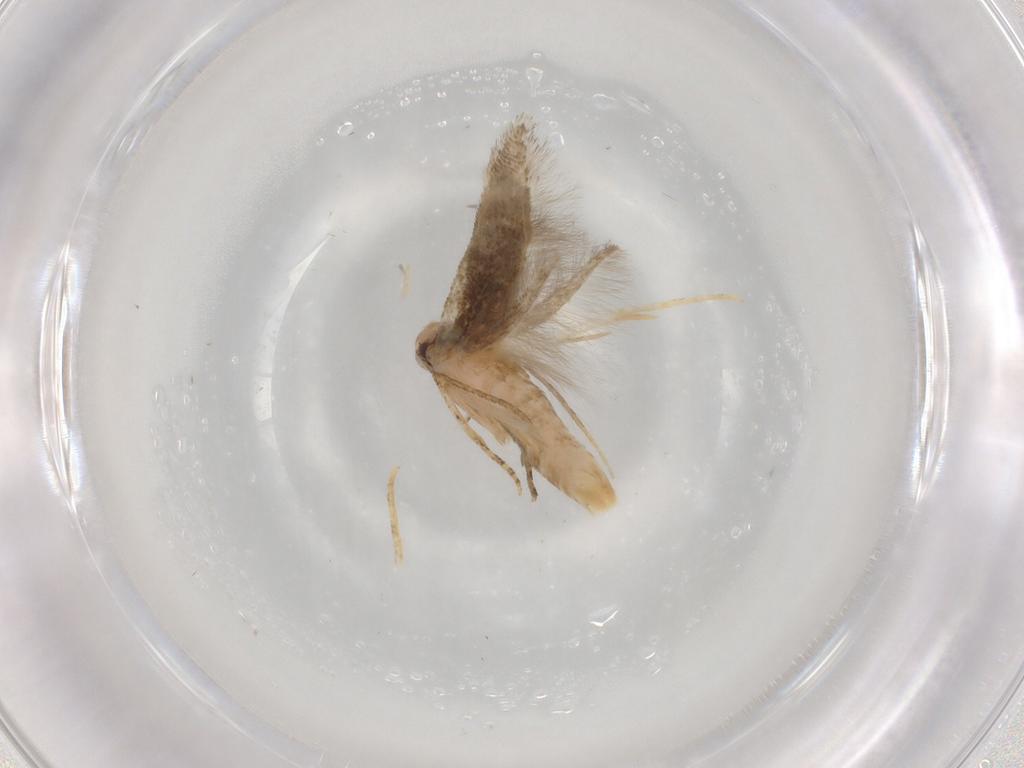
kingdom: Animalia
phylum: Arthropoda
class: Insecta
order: Lepidoptera
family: Cosmopterigidae
